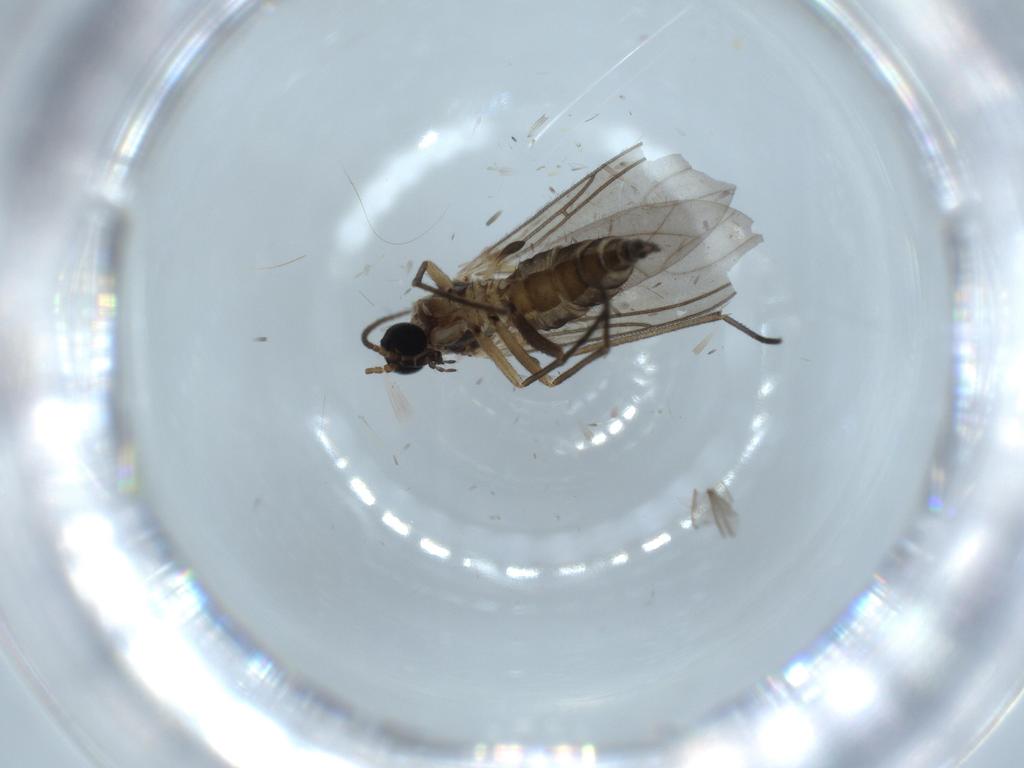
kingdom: Animalia
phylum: Arthropoda
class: Insecta
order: Diptera
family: Sciaridae
